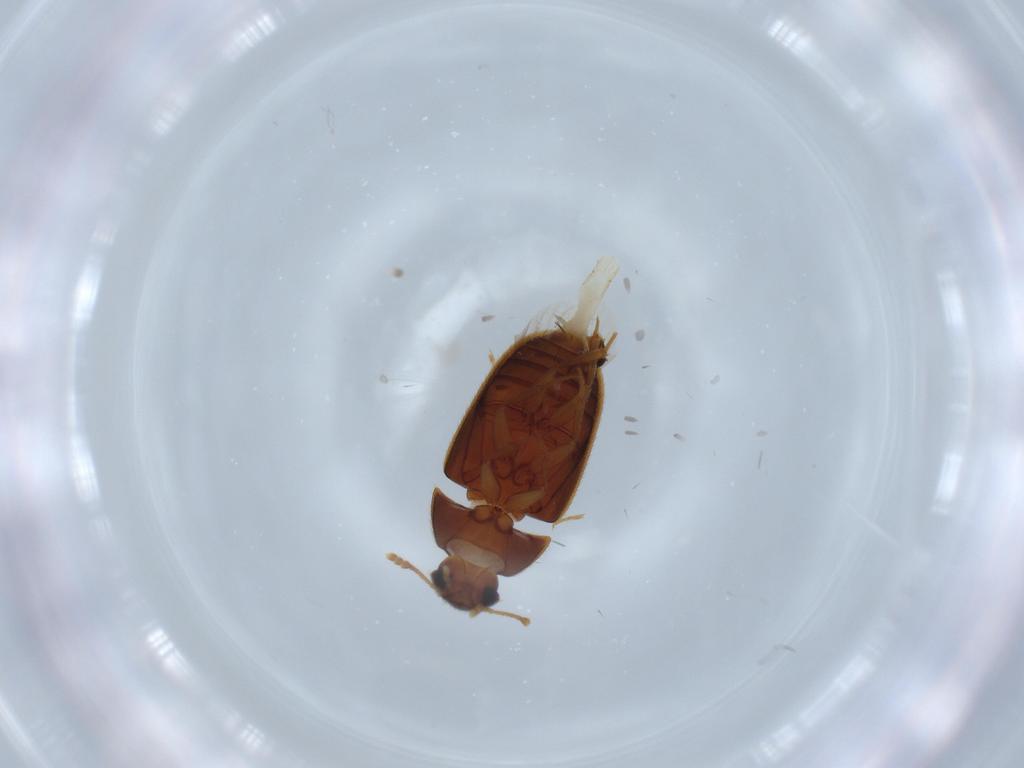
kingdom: Animalia
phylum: Arthropoda
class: Insecta
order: Coleoptera
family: Mycetophagidae
